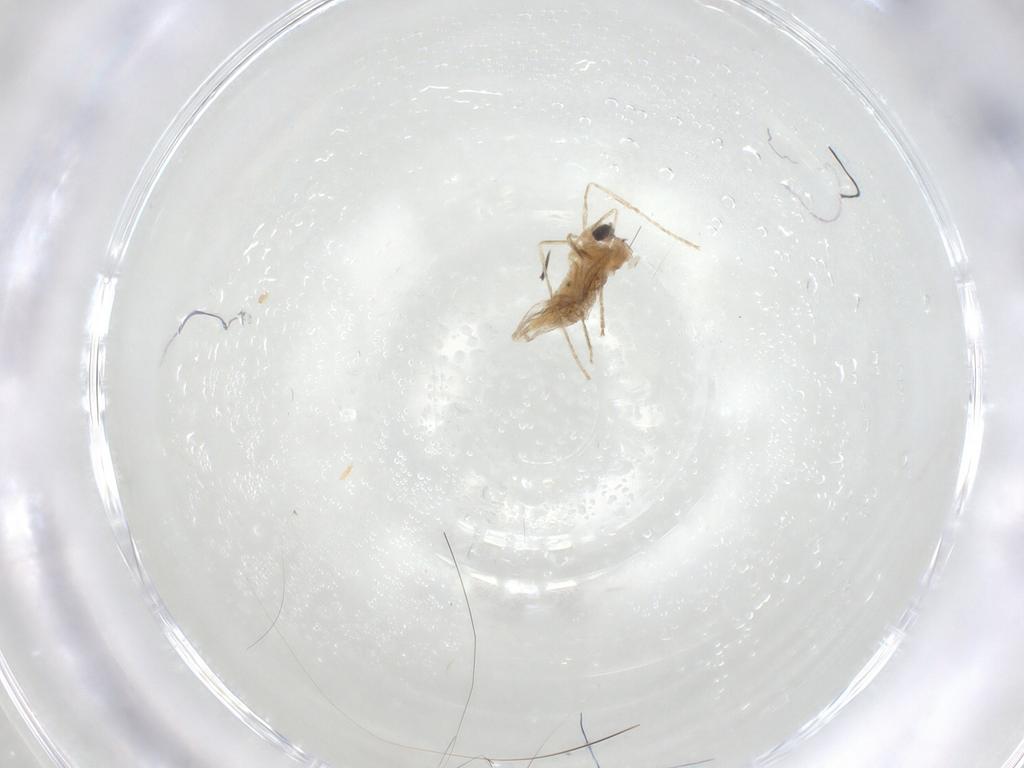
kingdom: Animalia
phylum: Arthropoda
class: Insecta
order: Diptera
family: Cecidomyiidae
